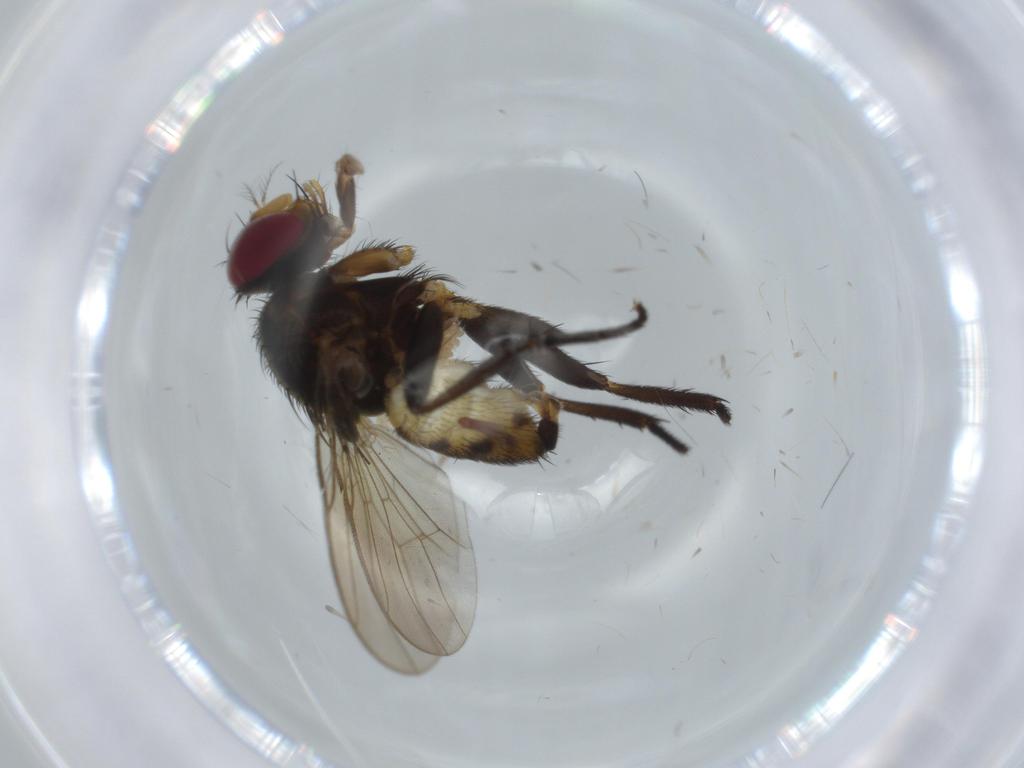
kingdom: Animalia
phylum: Arthropoda
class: Insecta
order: Diptera
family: Anthomyiidae
